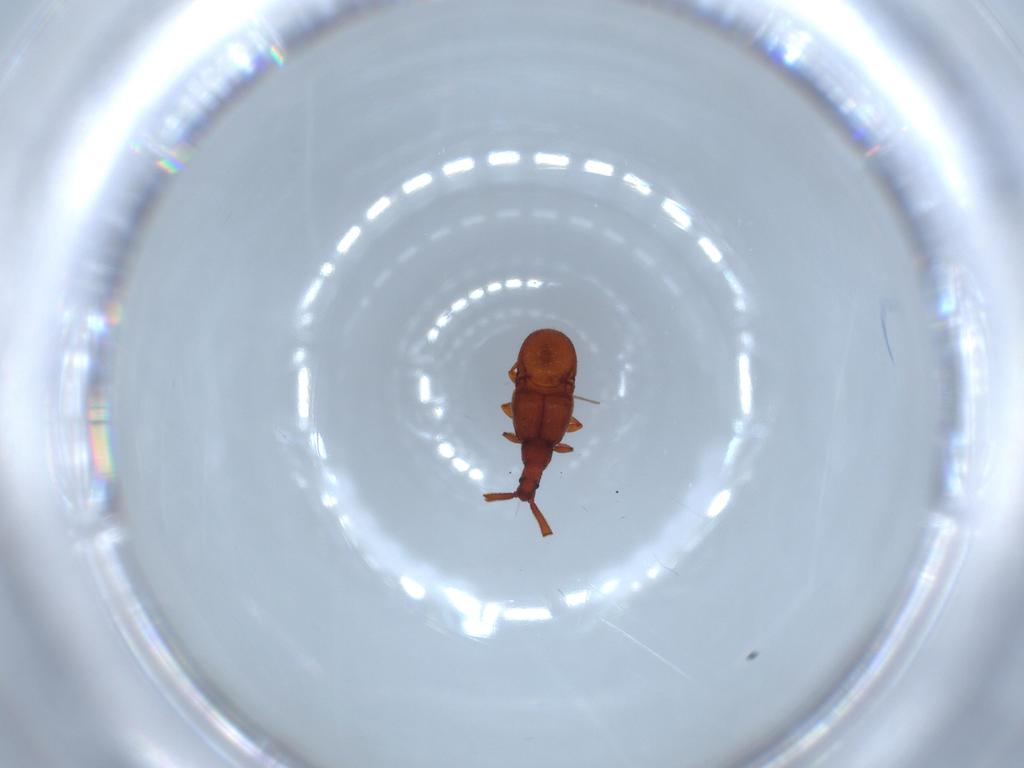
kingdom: Animalia
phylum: Arthropoda
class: Insecta
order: Coleoptera
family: Staphylinidae
